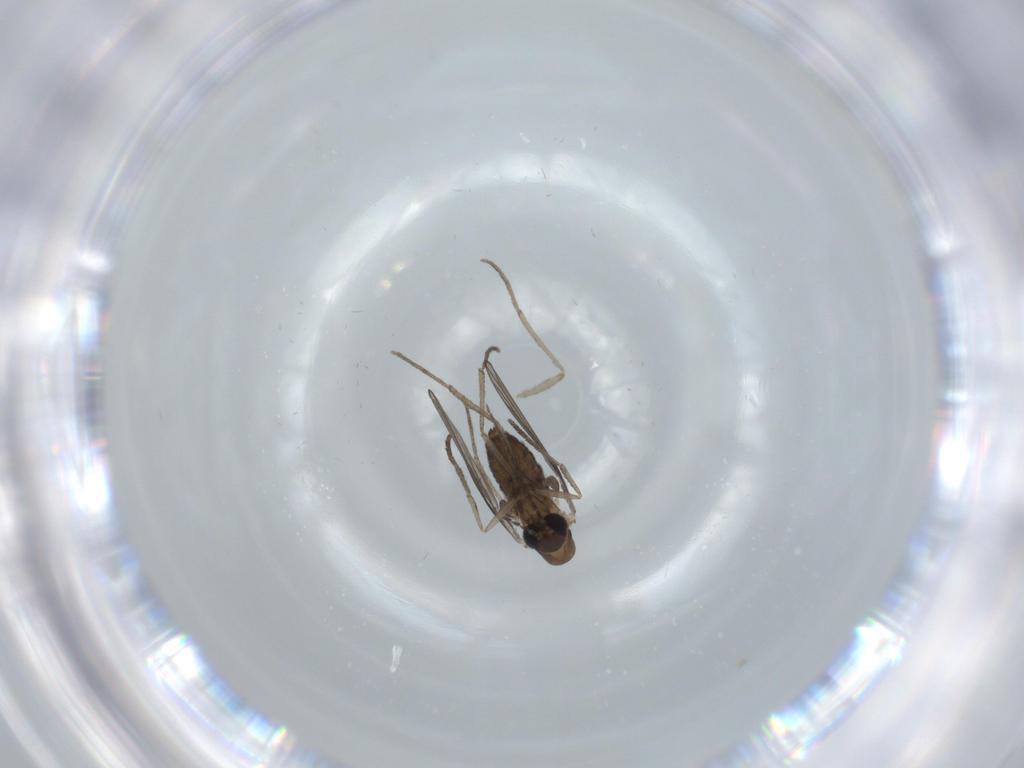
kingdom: Animalia
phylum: Arthropoda
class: Insecta
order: Diptera
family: Psychodidae
